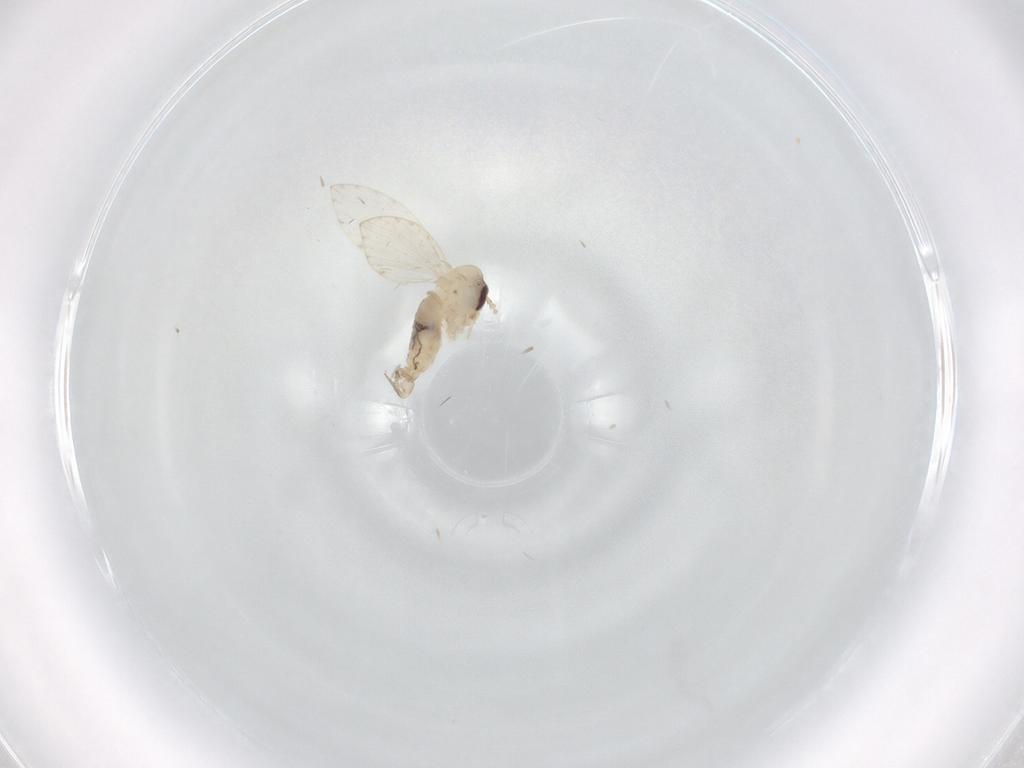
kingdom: Animalia
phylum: Arthropoda
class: Insecta
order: Diptera
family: Psychodidae
